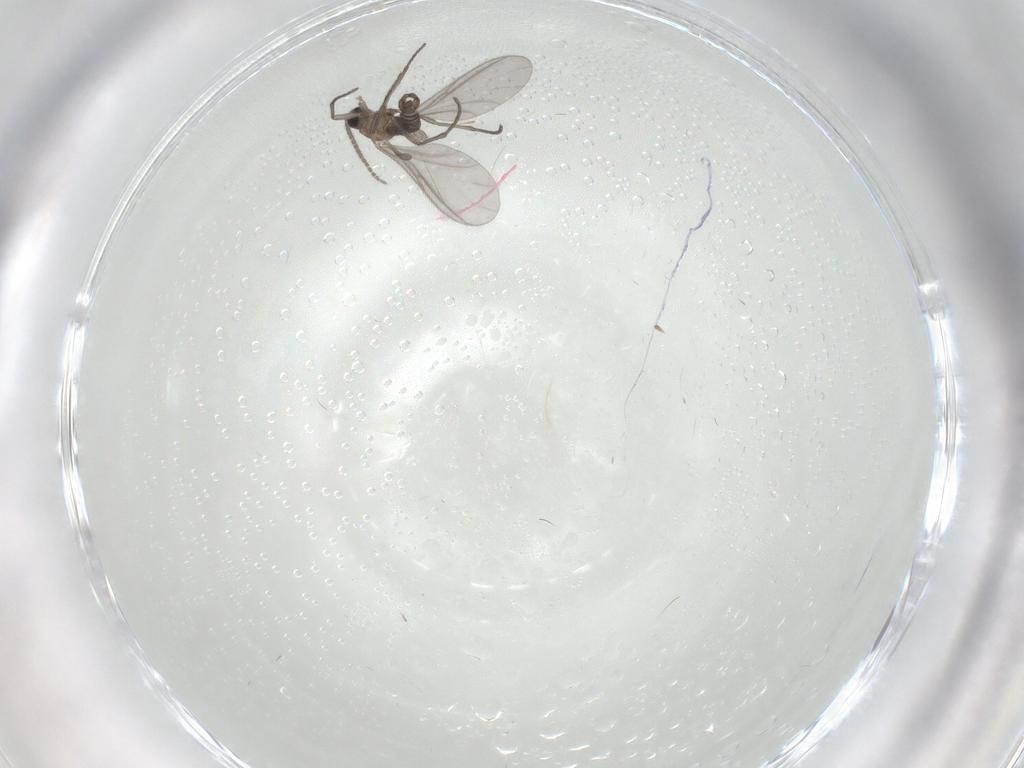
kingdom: Animalia
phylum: Arthropoda
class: Insecta
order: Diptera
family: Sciaridae
